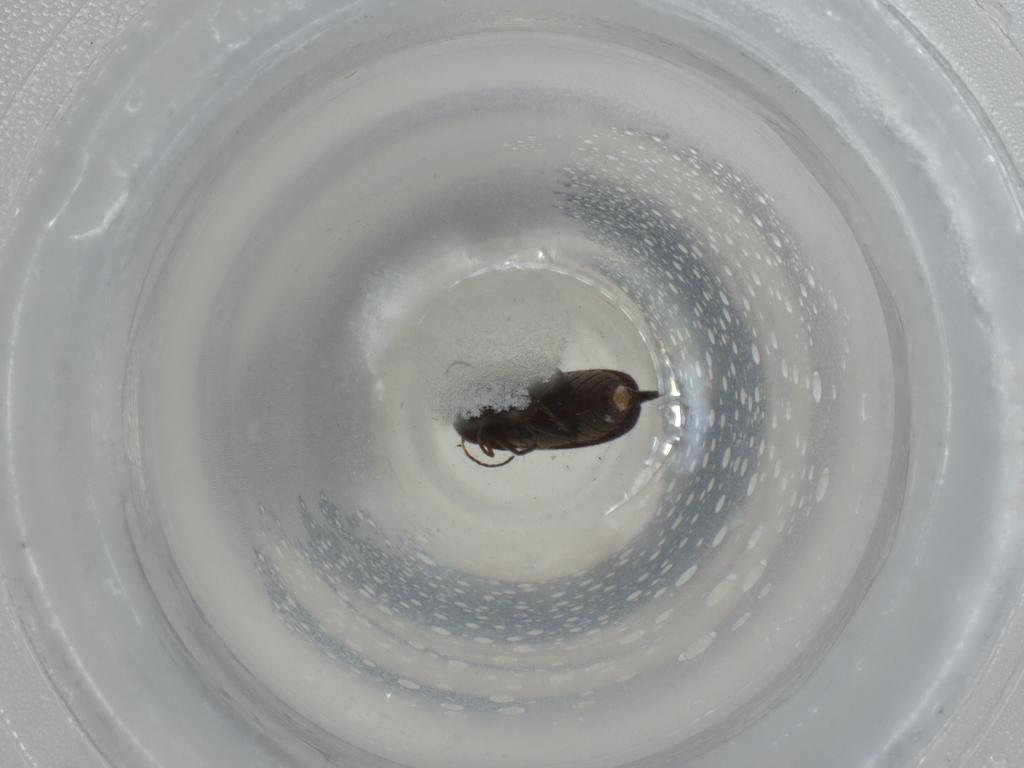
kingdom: Animalia
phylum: Arthropoda
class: Insecta
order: Coleoptera
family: Mordellidae
